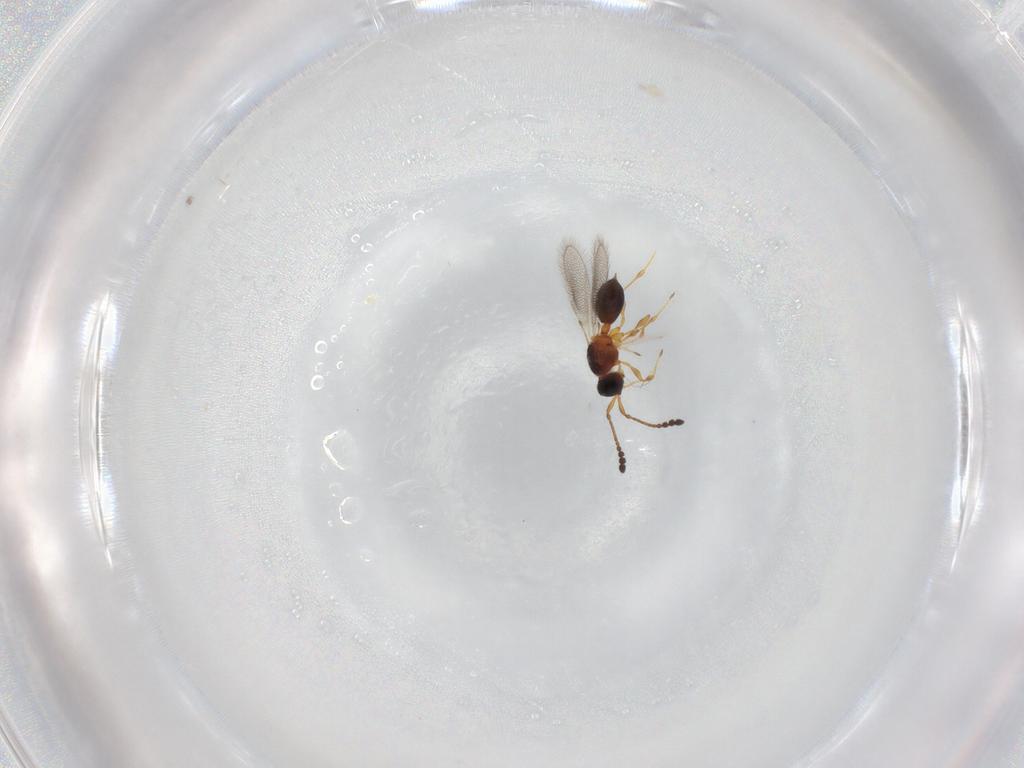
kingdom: Animalia
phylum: Arthropoda
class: Insecta
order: Hymenoptera
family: Diapriidae
